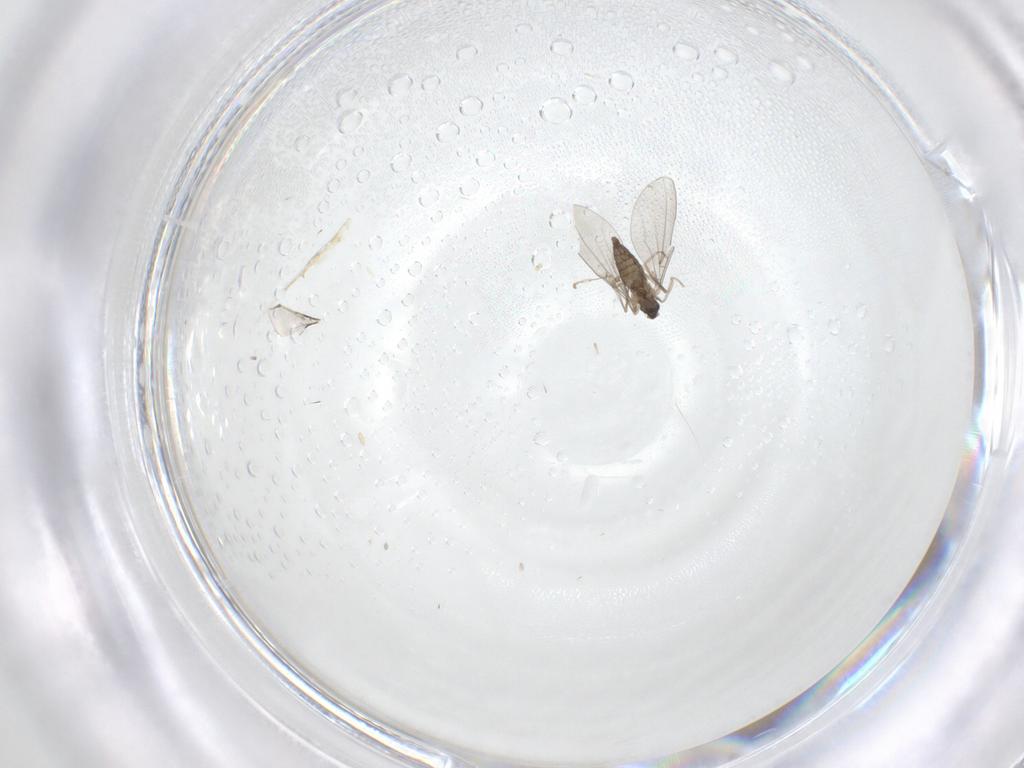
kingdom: Animalia
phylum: Arthropoda
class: Insecta
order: Diptera
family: Cecidomyiidae
